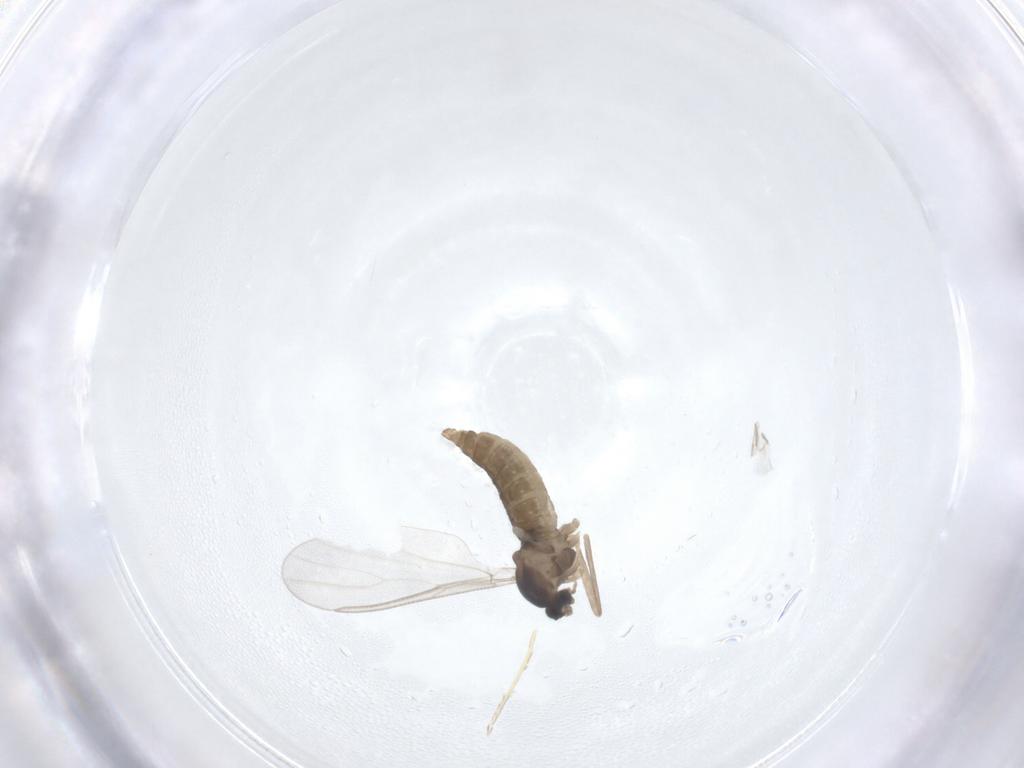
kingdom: Animalia
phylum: Arthropoda
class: Insecta
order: Diptera
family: Cecidomyiidae
